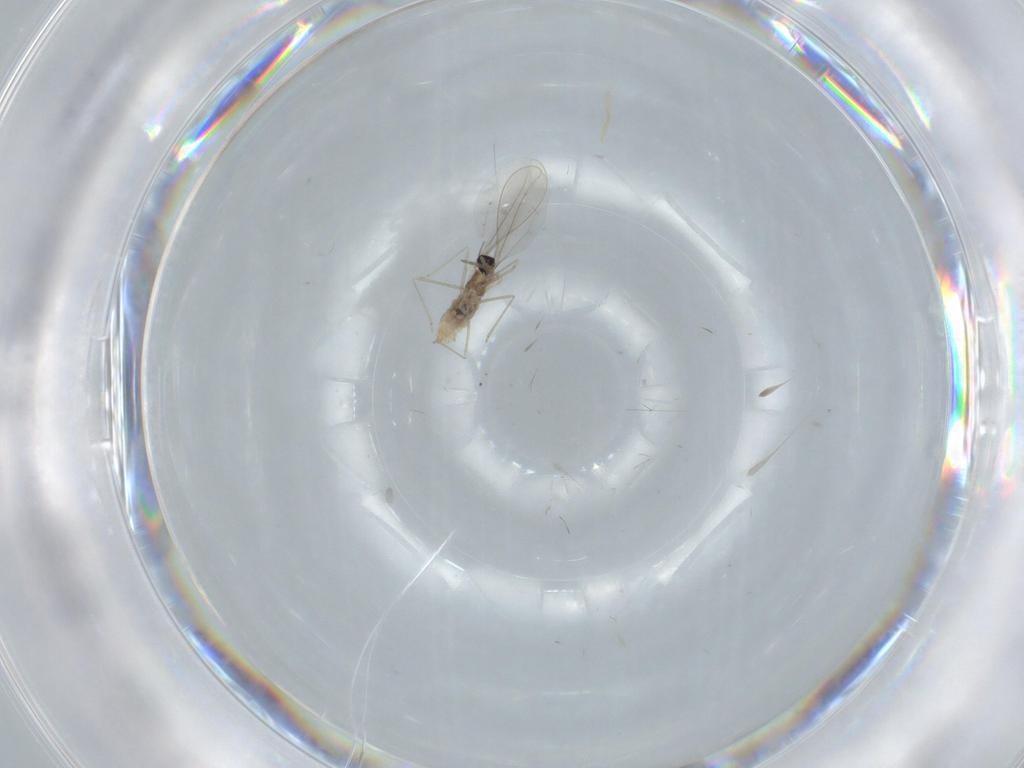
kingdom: Animalia
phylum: Arthropoda
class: Insecta
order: Diptera
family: Cecidomyiidae
